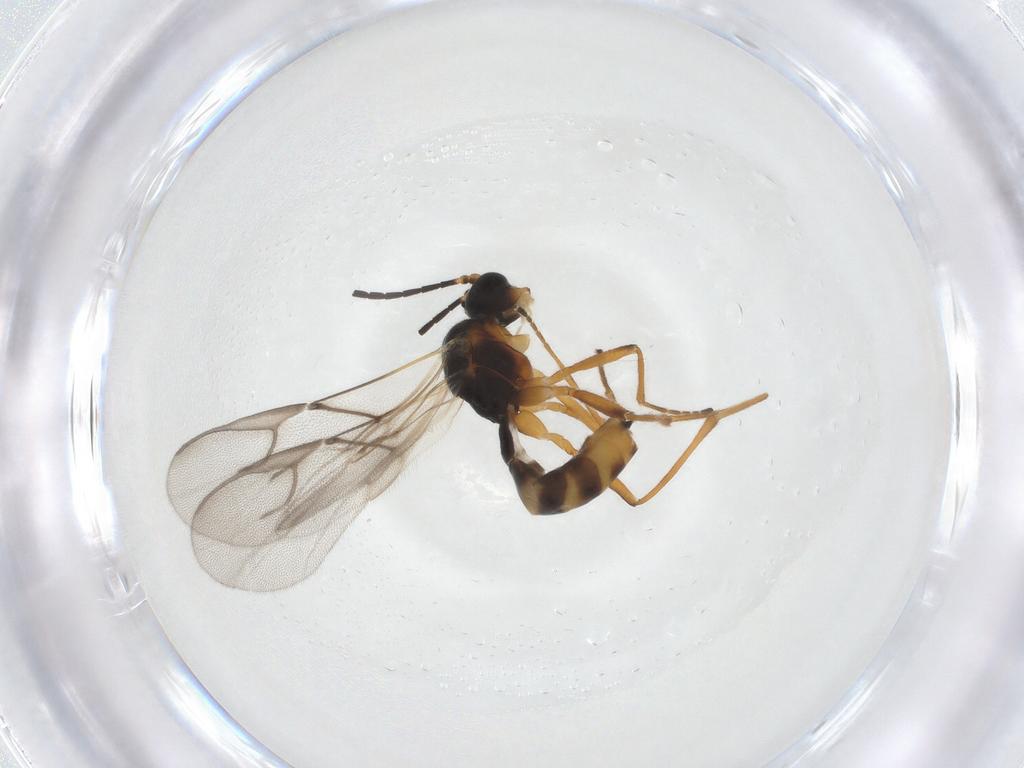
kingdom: Animalia
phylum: Arthropoda
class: Insecta
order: Hymenoptera
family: Braconidae
